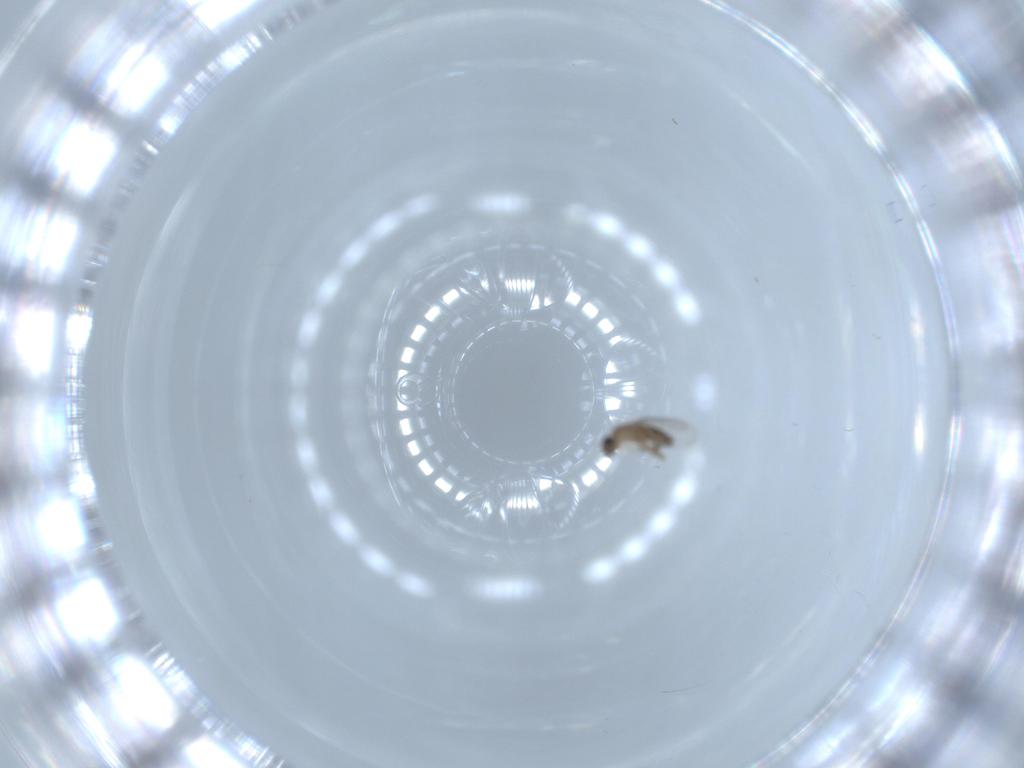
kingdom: Animalia
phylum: Arthropoda
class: Insecta
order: Diptera
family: Phoridae
